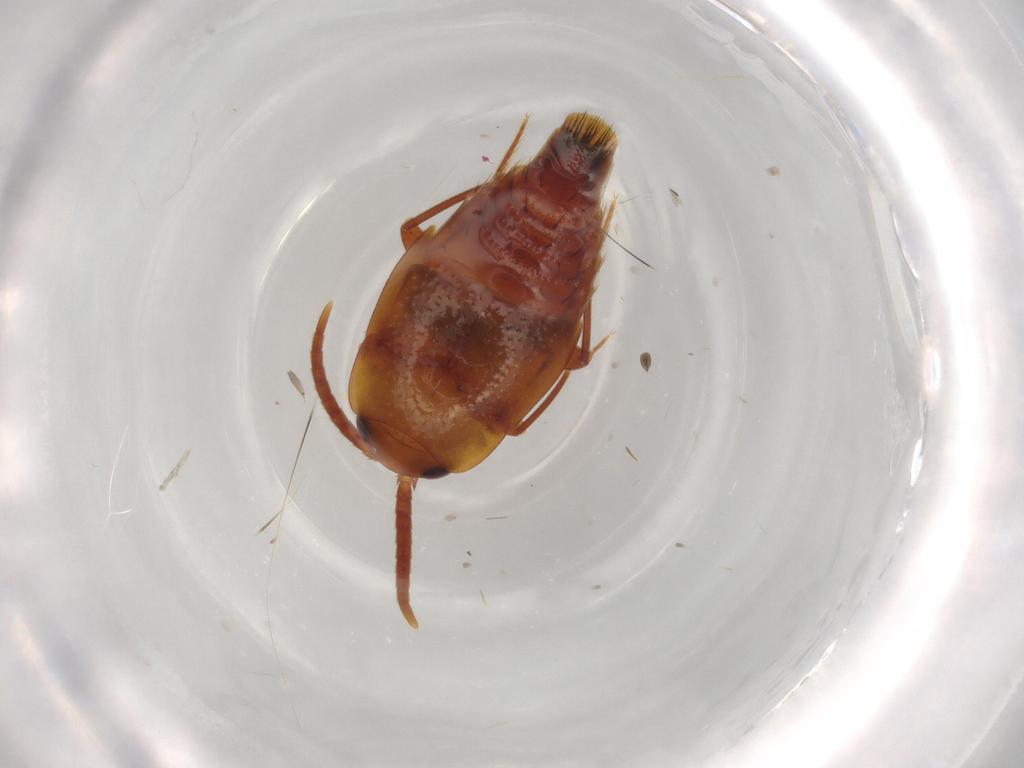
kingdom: Animalia
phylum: Arthropoda
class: Insecta
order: Coleoptera
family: Staphylinidae
